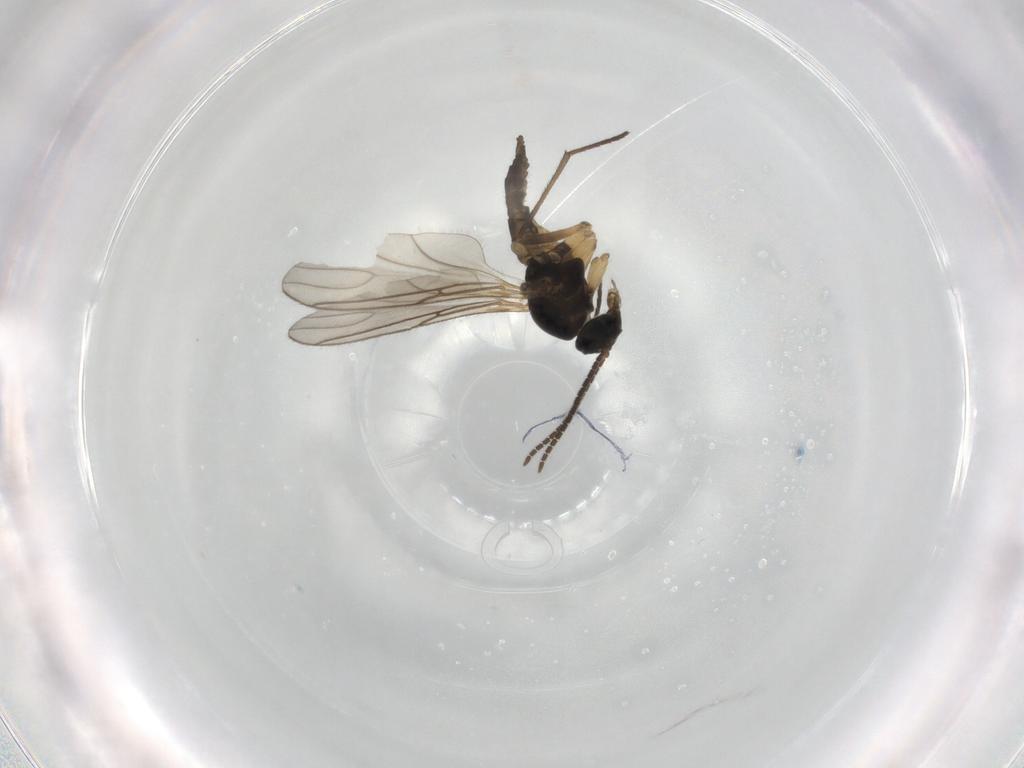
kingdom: Animalia
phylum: Arthropoda
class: Insecta
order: Diptera
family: Sciaridae
